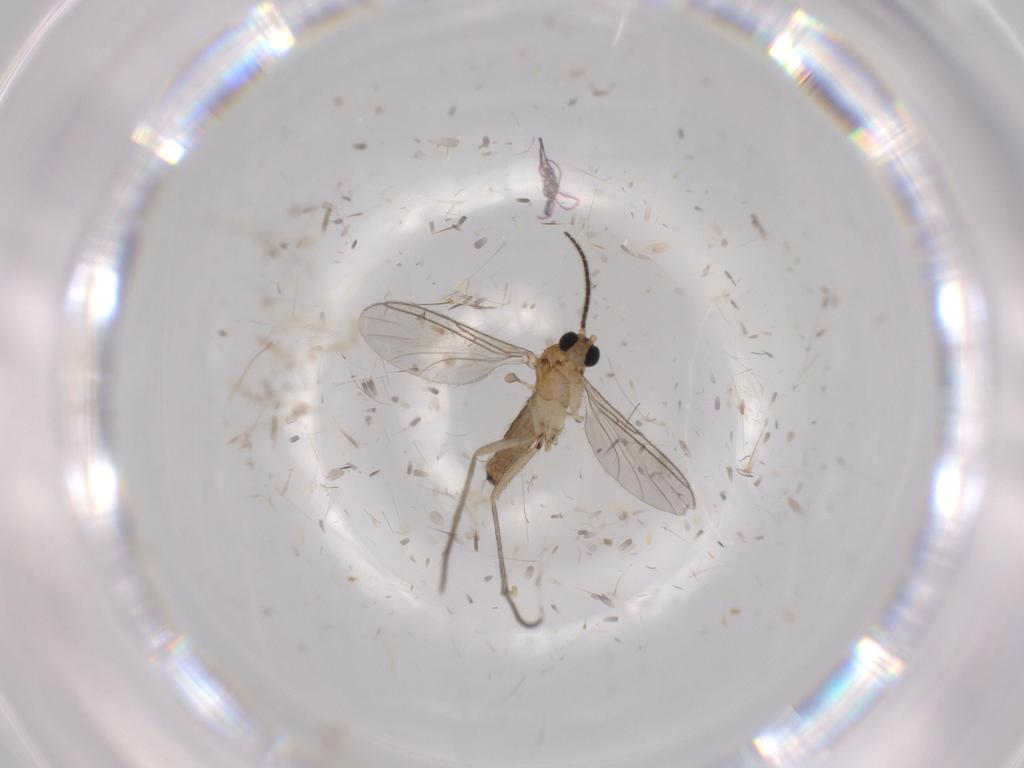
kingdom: Animalia
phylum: Arthropoda
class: Insecta
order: Diptera
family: Sciaridae
